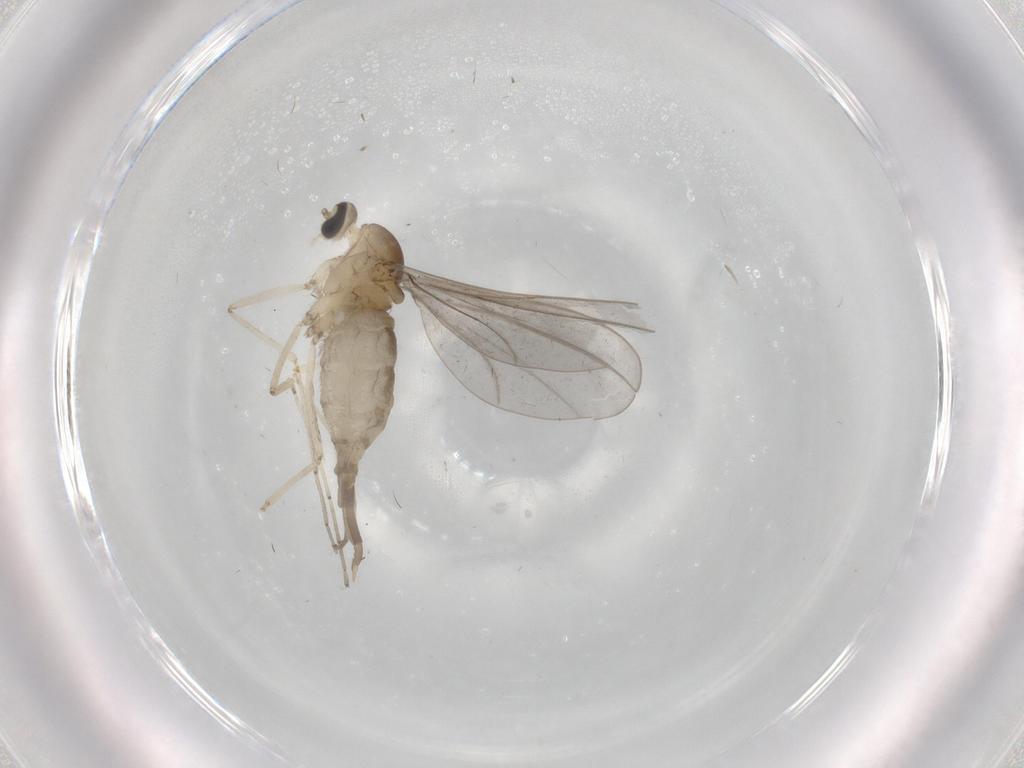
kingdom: Animalia
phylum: Arthropoda
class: Insecta
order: Diptera
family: Cecidomyiidae
